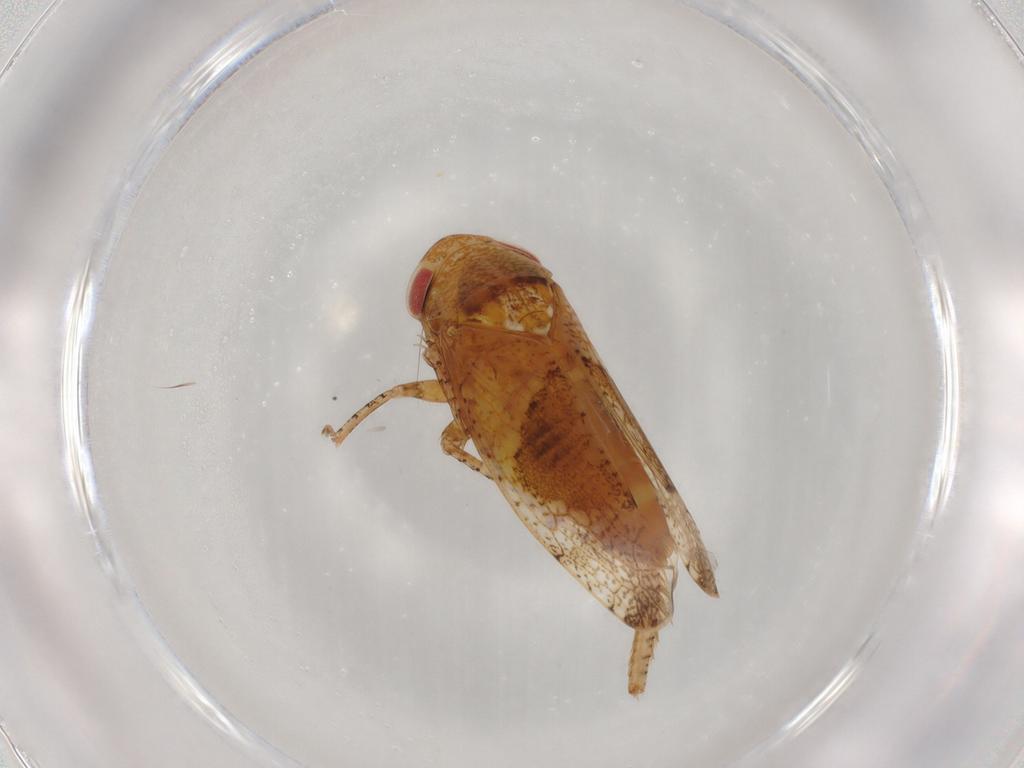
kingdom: Animalia
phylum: Arthropoda
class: Insecta
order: Hemiptera
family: Cicadellidae
